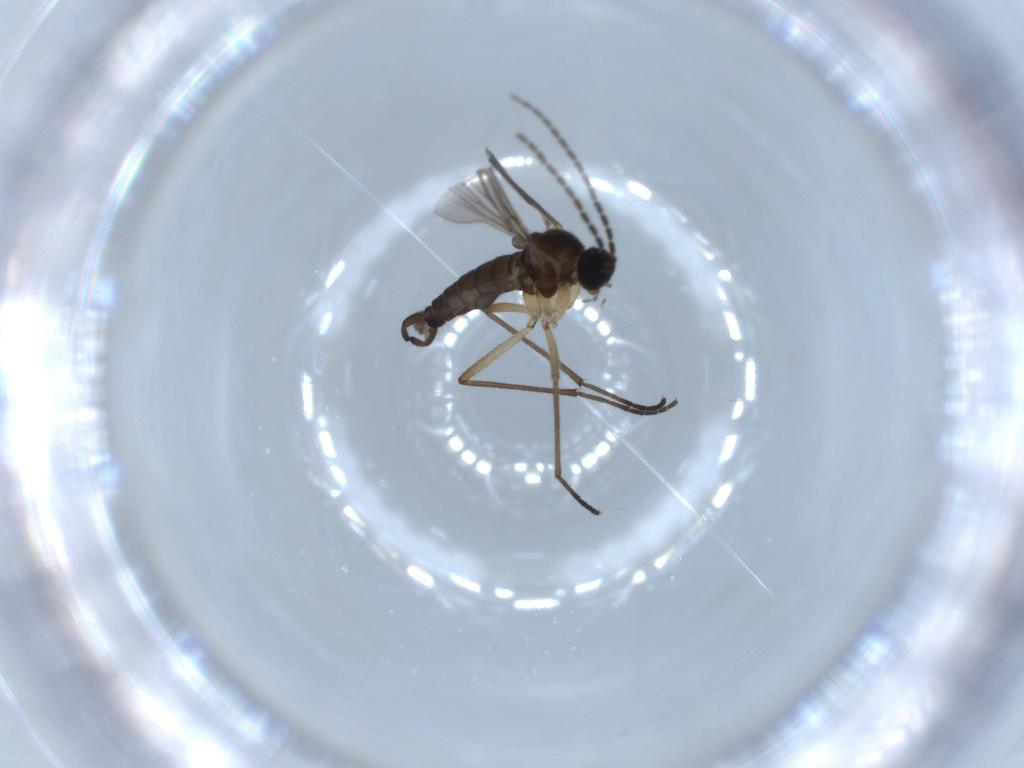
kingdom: Animalia
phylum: Arthropoda
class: Insecta
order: Diptera
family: Sciaridae
